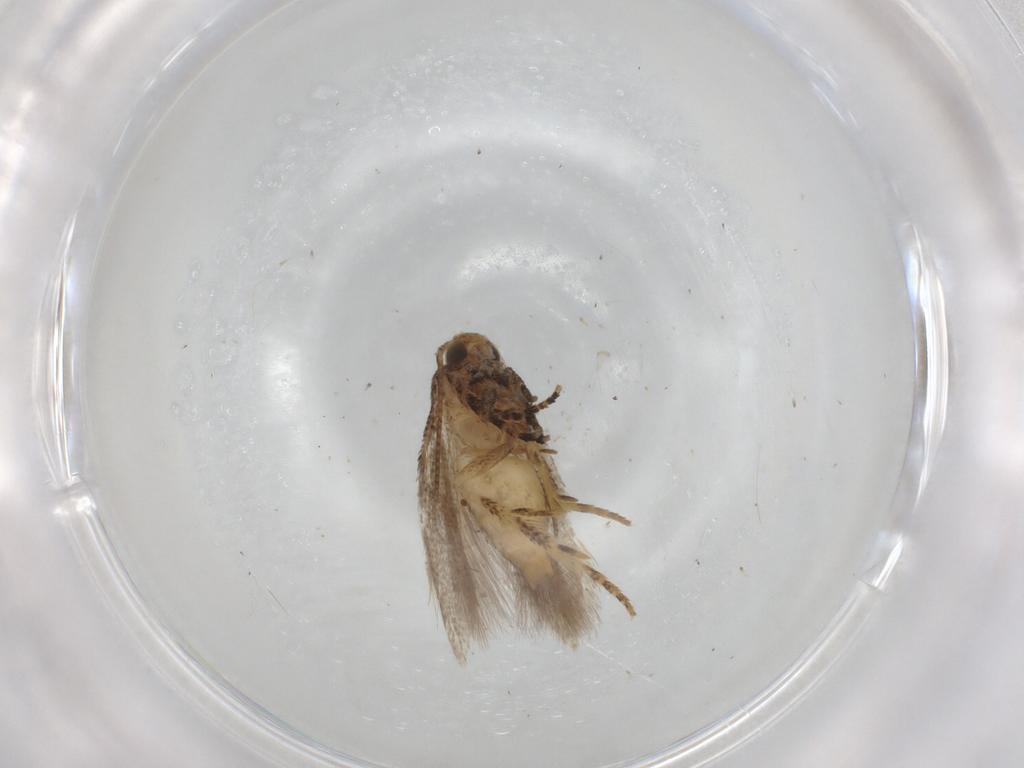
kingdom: Animalia
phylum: Arthropoda
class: Insecta
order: Lepidoptera
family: Gelechiidae
